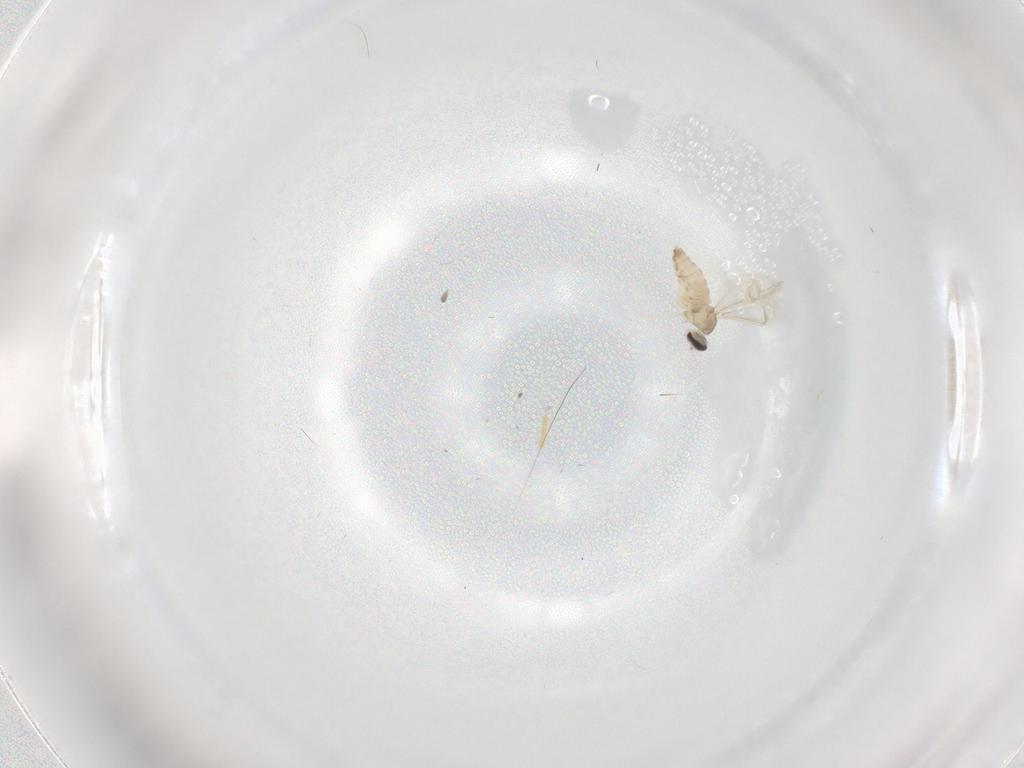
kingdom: Animalia
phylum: Arthropoda
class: Insecta
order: Diptera
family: Cecidomyiidae
